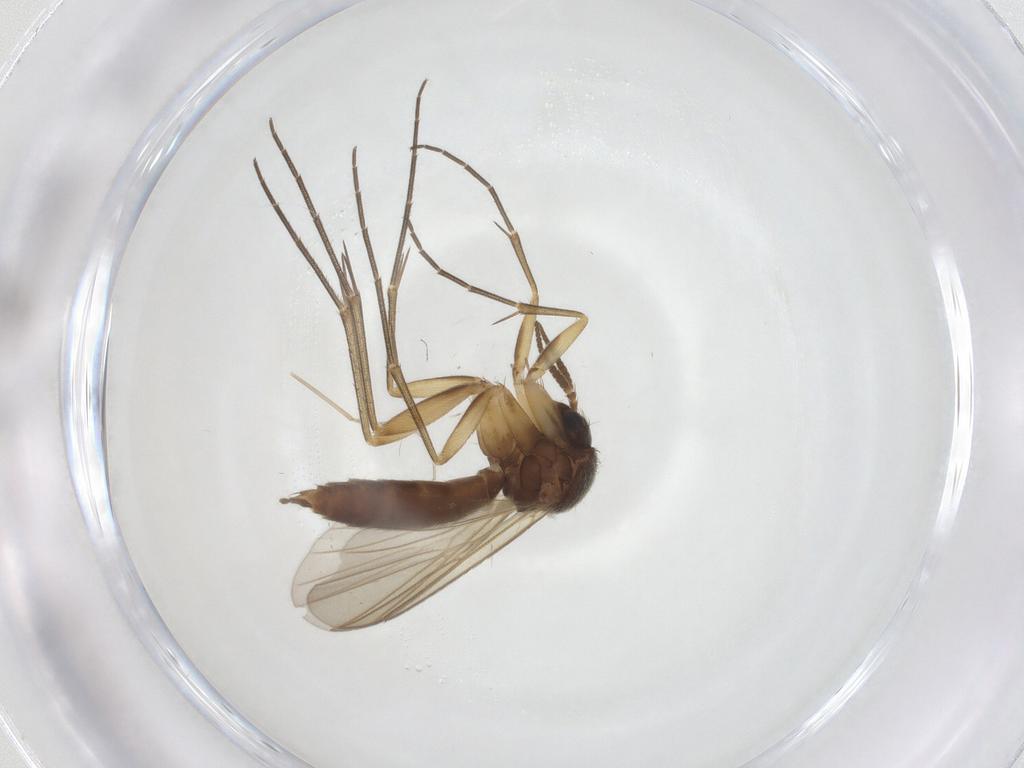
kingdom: Animalia
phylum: Arthropoda
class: Insecta
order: Diptera
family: Cecidomyiidae
